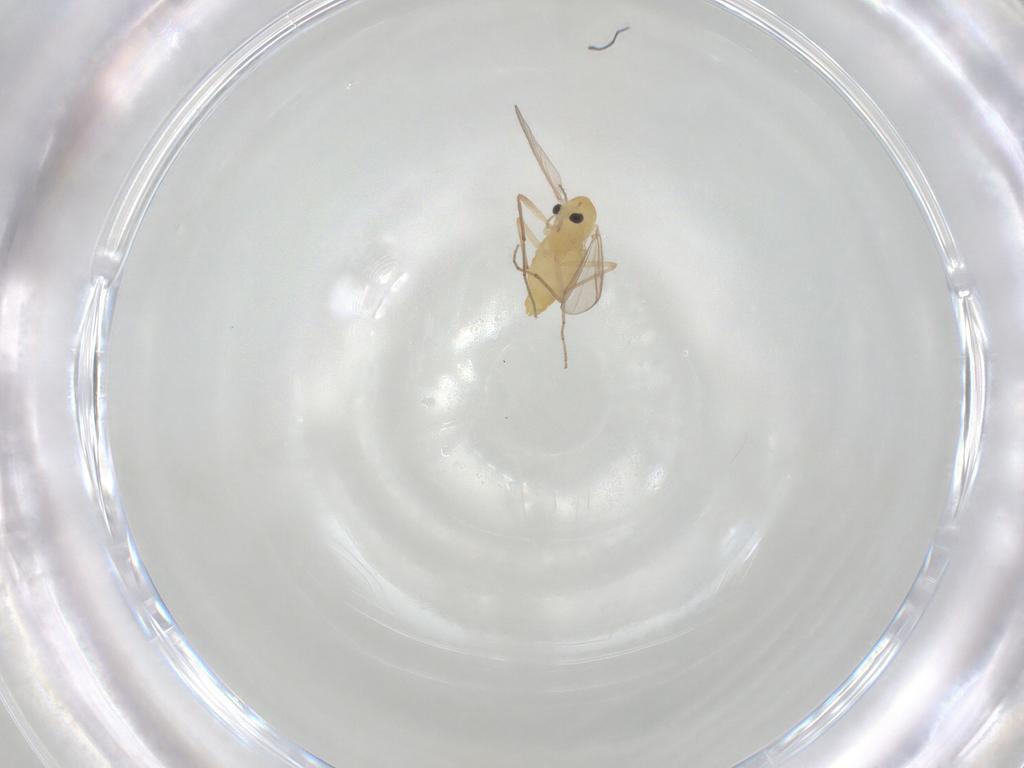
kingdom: Animalia
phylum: Arthropoda
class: Insecta
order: Diptera
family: Chironomidae
